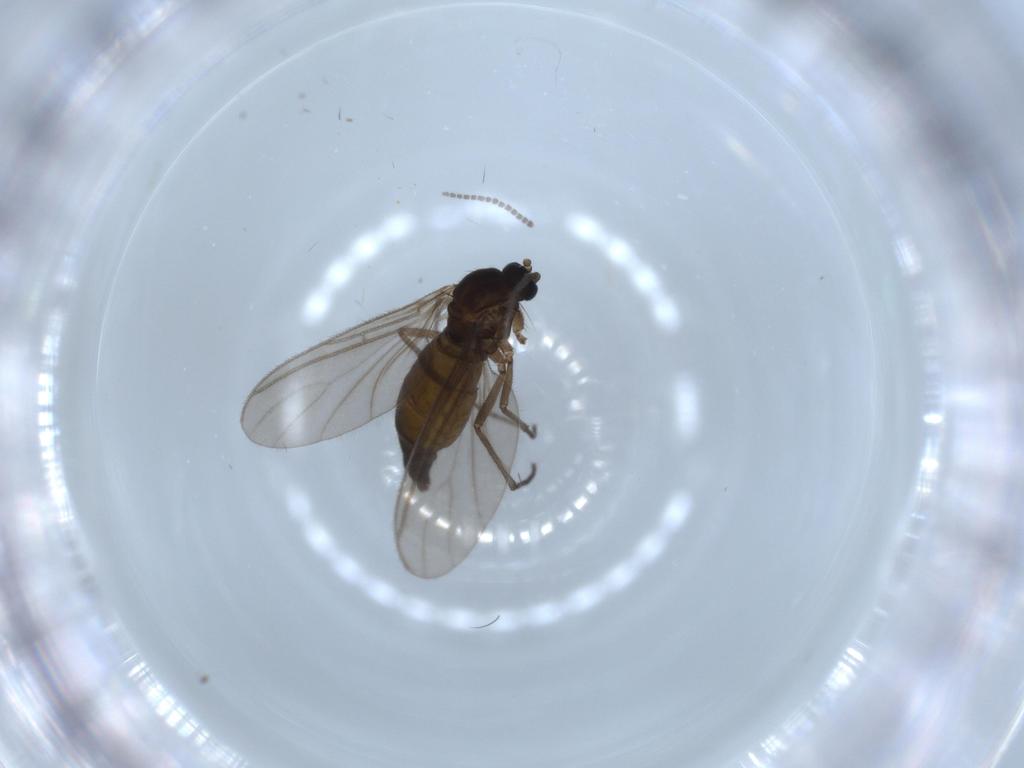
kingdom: Animalia
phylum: Arthropoda
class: Insecta
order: Diptera
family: Sciaridae
